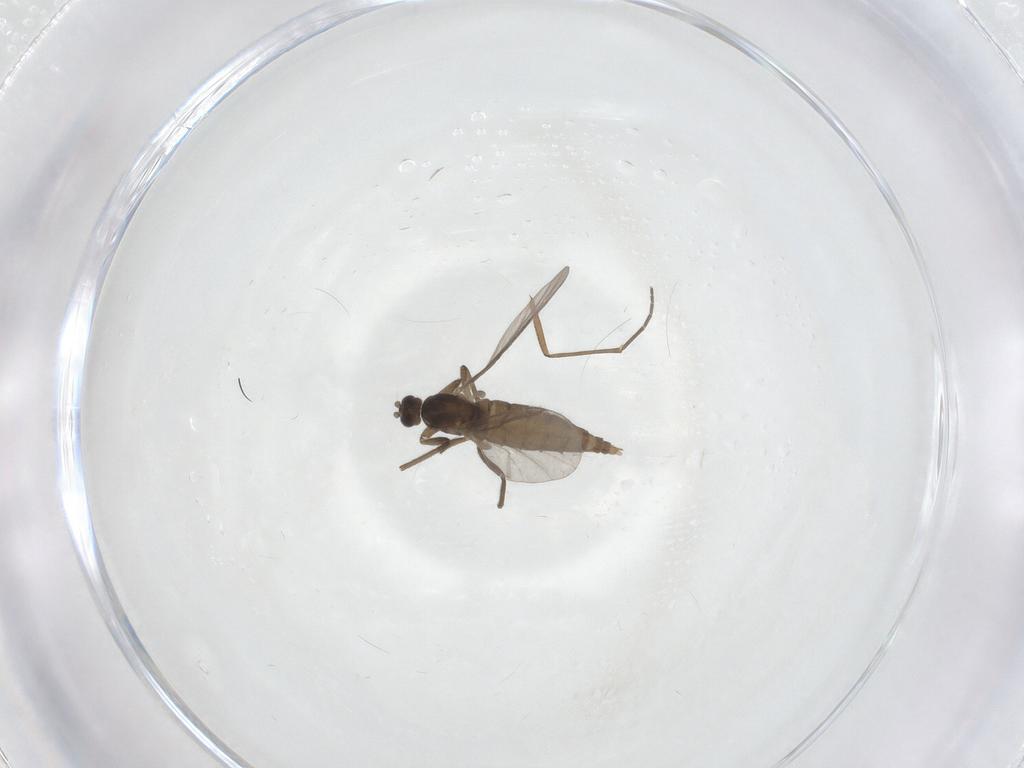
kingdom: Animalia
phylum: Arthropoda
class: Insecta
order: Diptera
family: Cecidomyiidae
